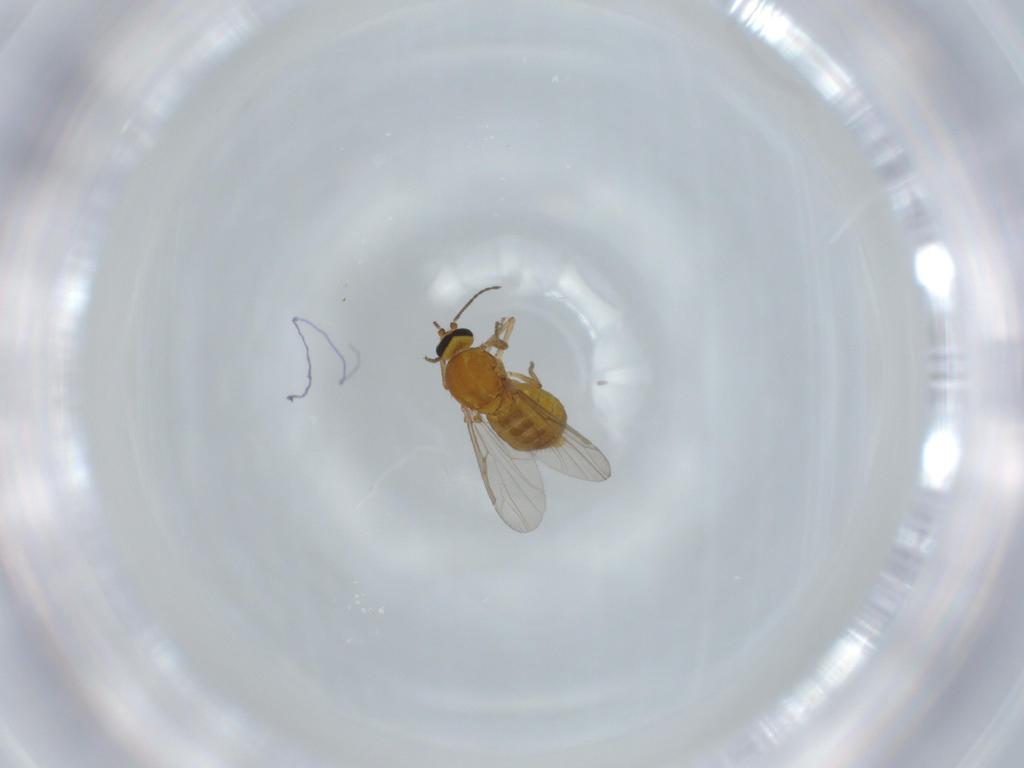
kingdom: Animalia
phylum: Arthropoda
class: Insecta
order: Diptera
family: Ceratopogonidae
